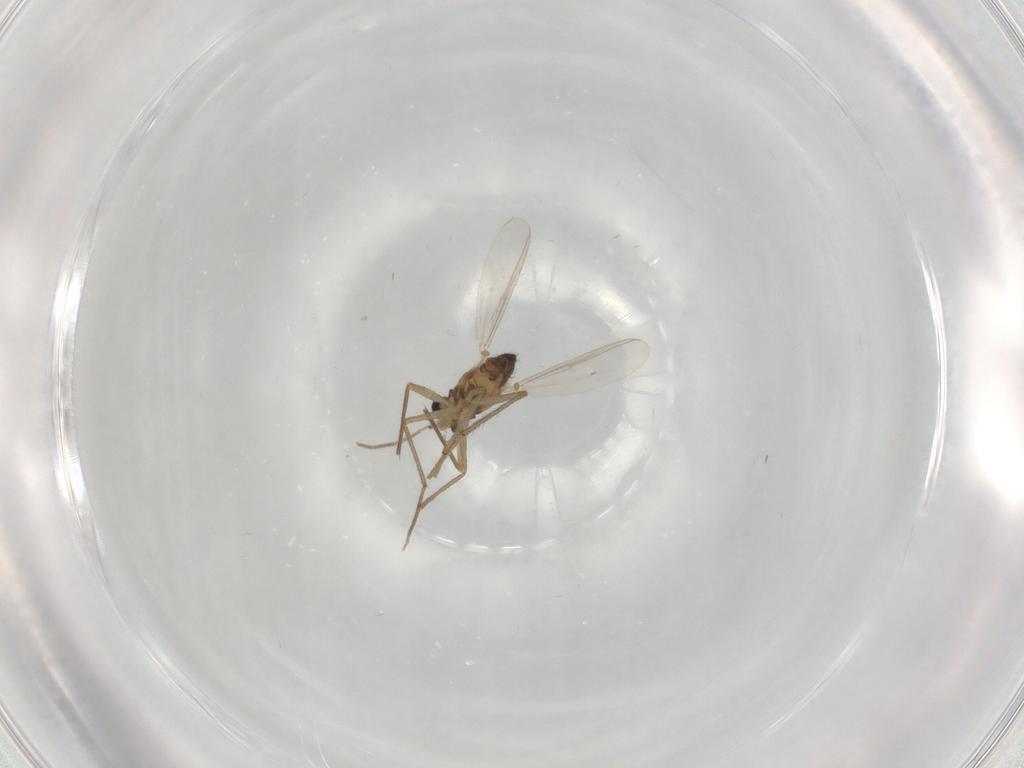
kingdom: Animalia
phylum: Arthropoda
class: Insecta
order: Diptera
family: Chironomidae
